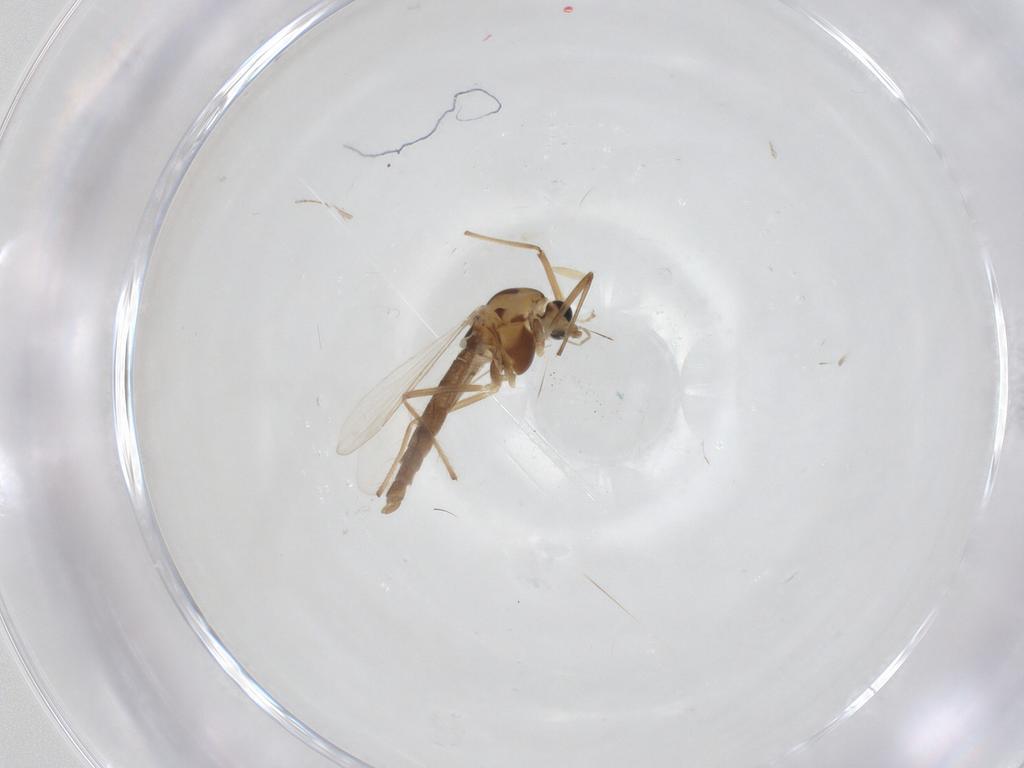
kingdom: Animalia
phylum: Arthropoda
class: Insecta
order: Diptera
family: Chironomidae
